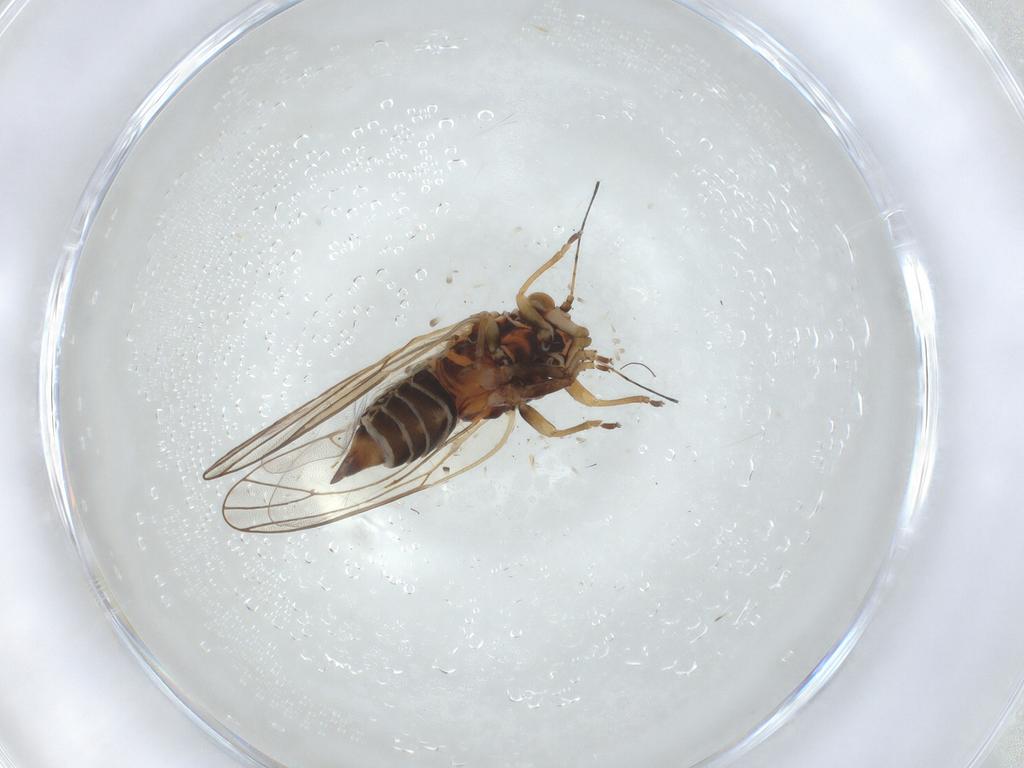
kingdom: Animalia
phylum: Arthropoda
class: Insecta
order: Hemiptera
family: Psyllidae
